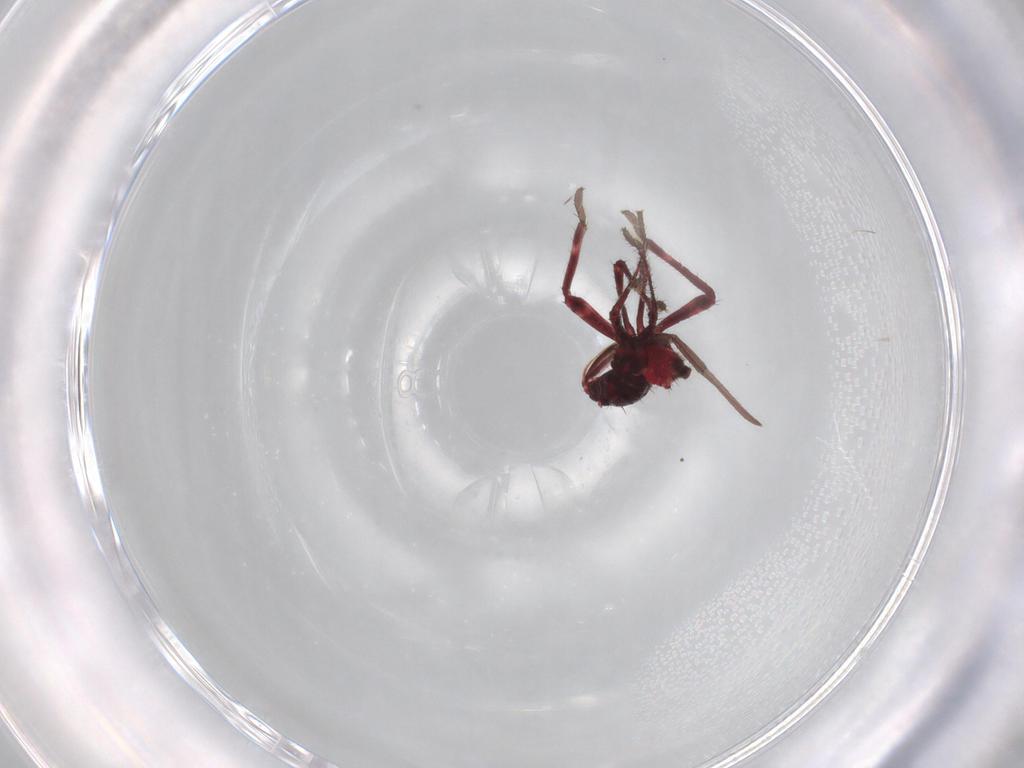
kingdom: Animalia
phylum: Arthropoda
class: Insecta
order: Hemiptera
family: Coreidae
